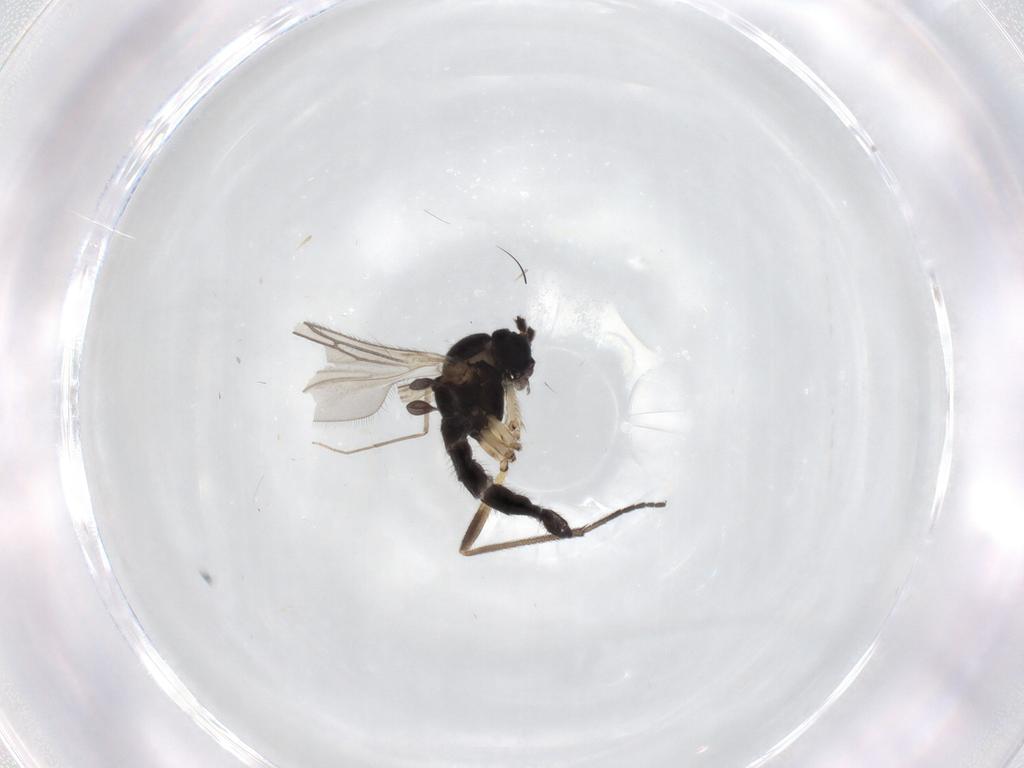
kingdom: Animalia
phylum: Arthropoda
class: Insecta
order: Diptera
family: Sciaridae
